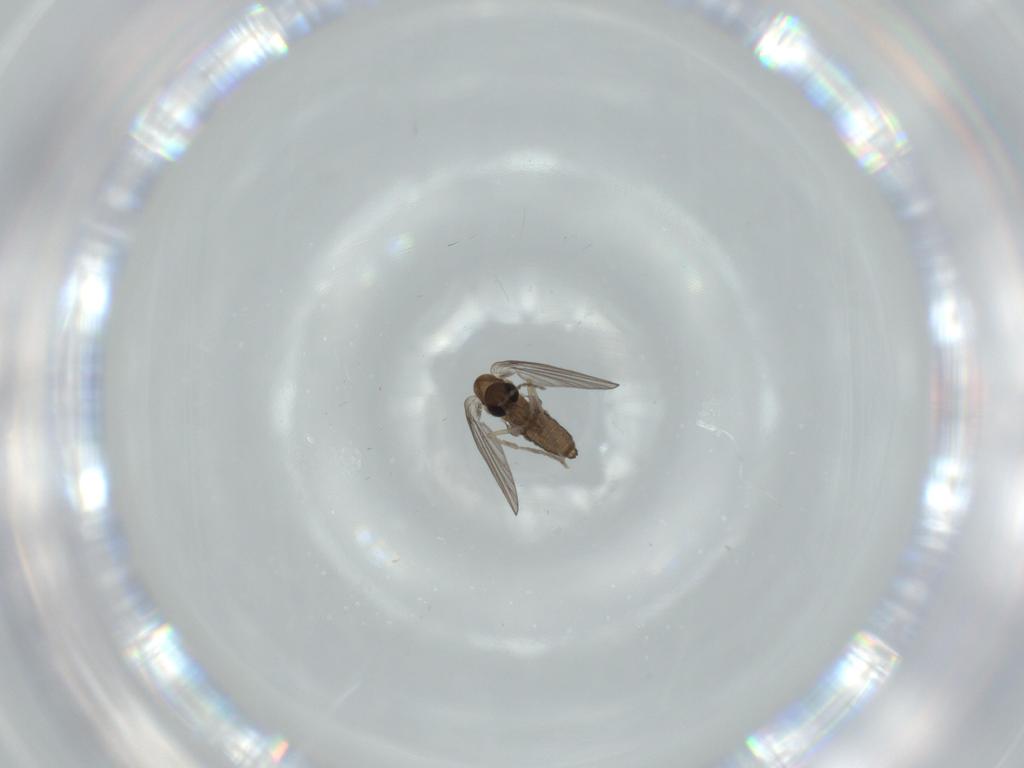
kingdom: Animalia
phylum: Arthropoda
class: Insecta
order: Diptera
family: Psychodidae
